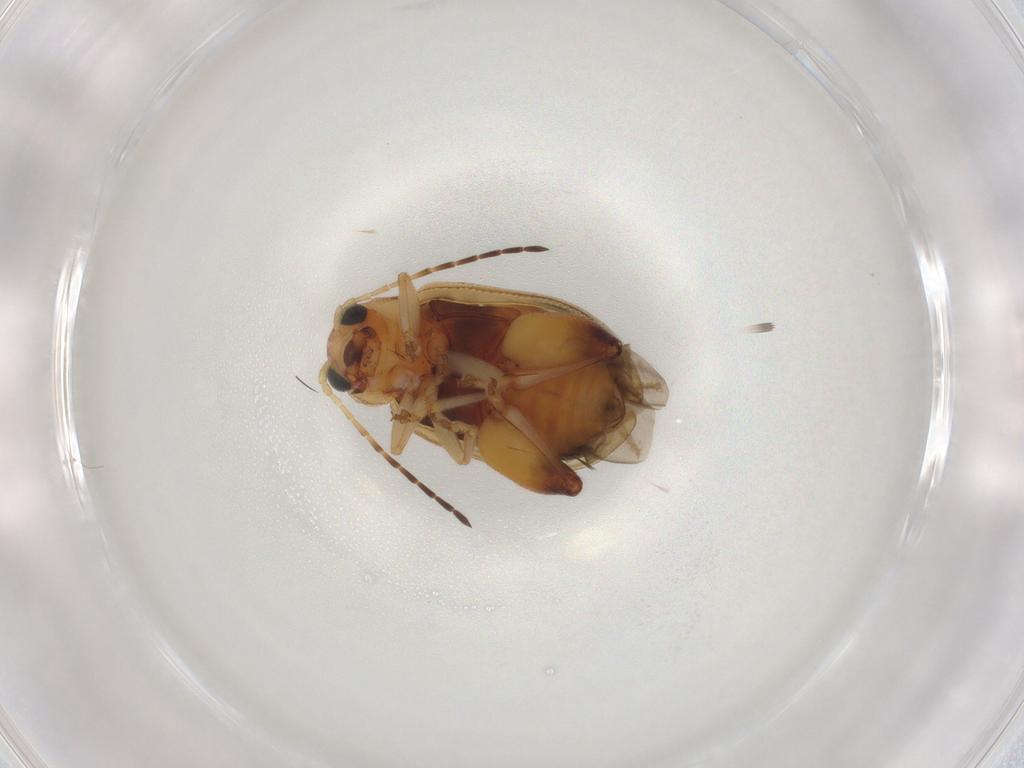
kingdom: Animalia
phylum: Arthropoda
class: Insecta
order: Coleoptera
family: Chrysomelidae
